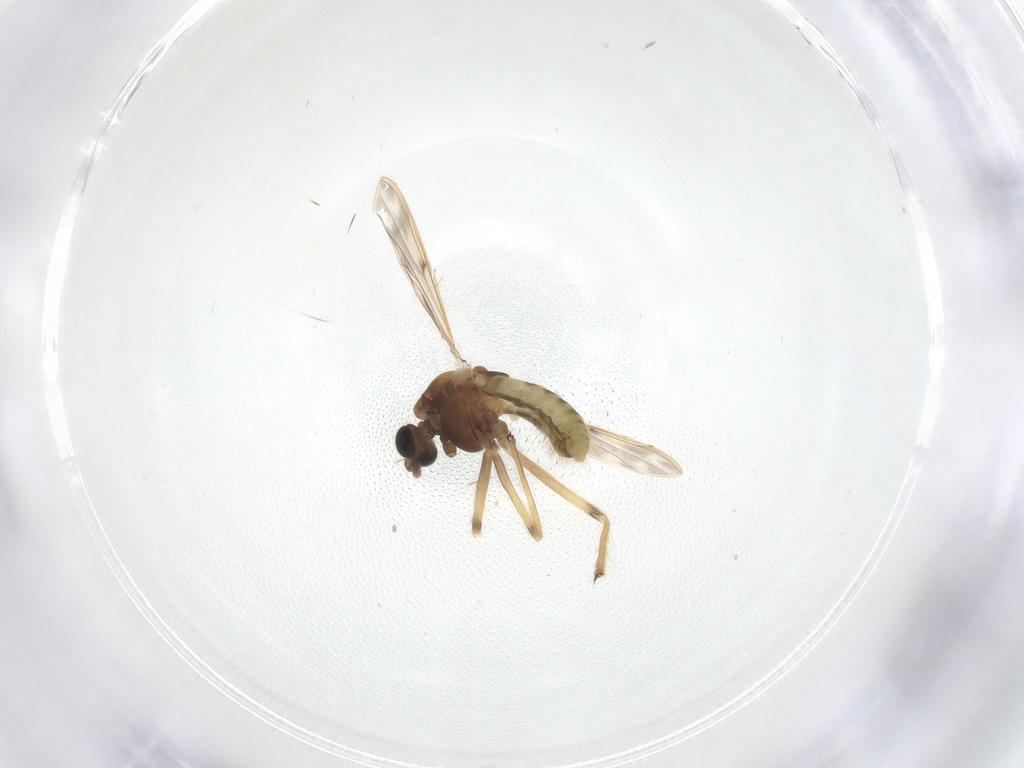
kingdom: Animalia
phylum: Arthropoda
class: Insecta
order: Diptera
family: Chironomidae
